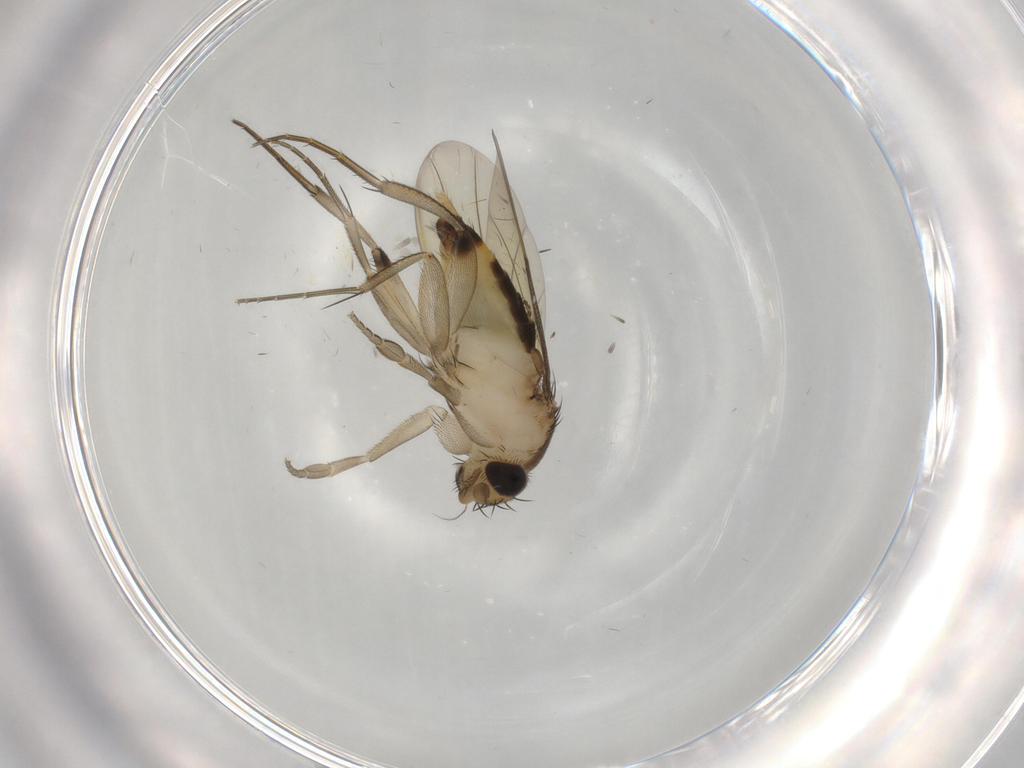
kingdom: Animalia
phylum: Arthropoda
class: Insecta
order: Diptera
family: Phoridae
